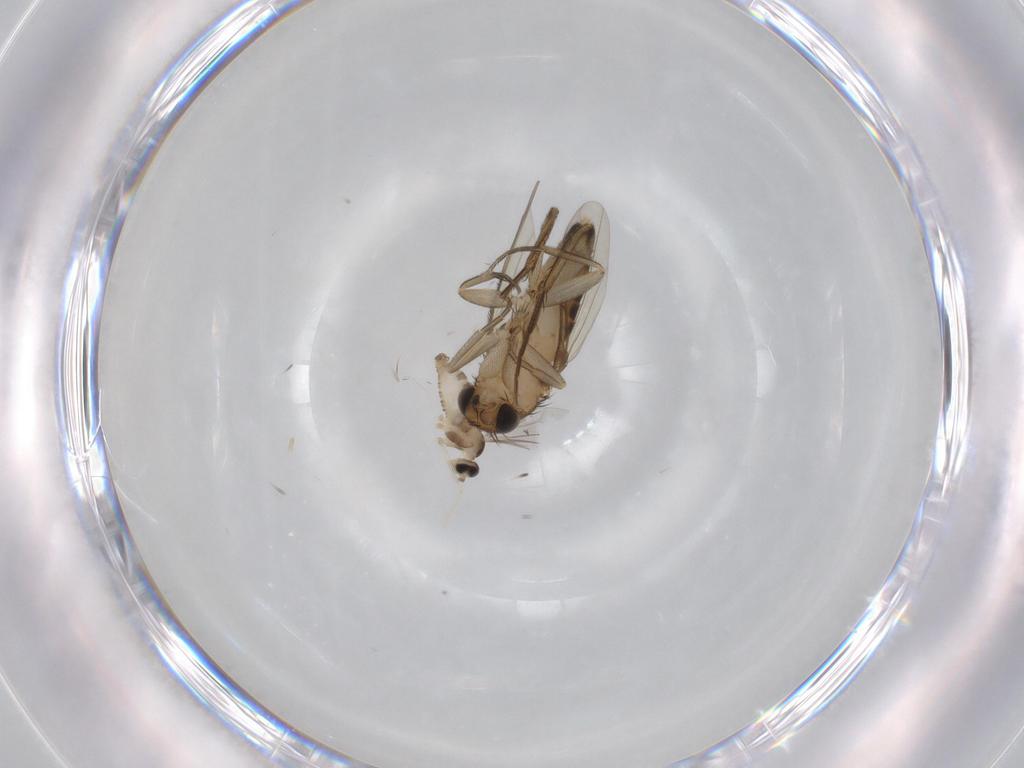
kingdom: Animalia
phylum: Arthropoda
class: Insecta
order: Diptera
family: Phoridae
